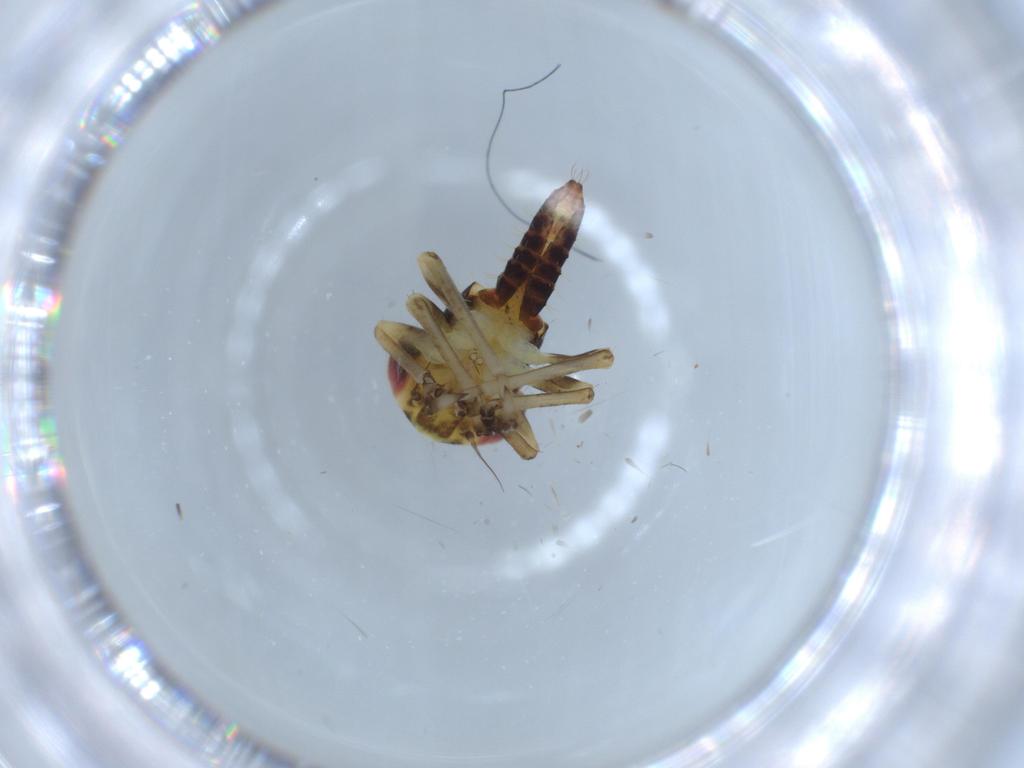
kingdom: Animalia
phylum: Arthropoda
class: Insecta
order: Hemiptera
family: Cicadellidae
